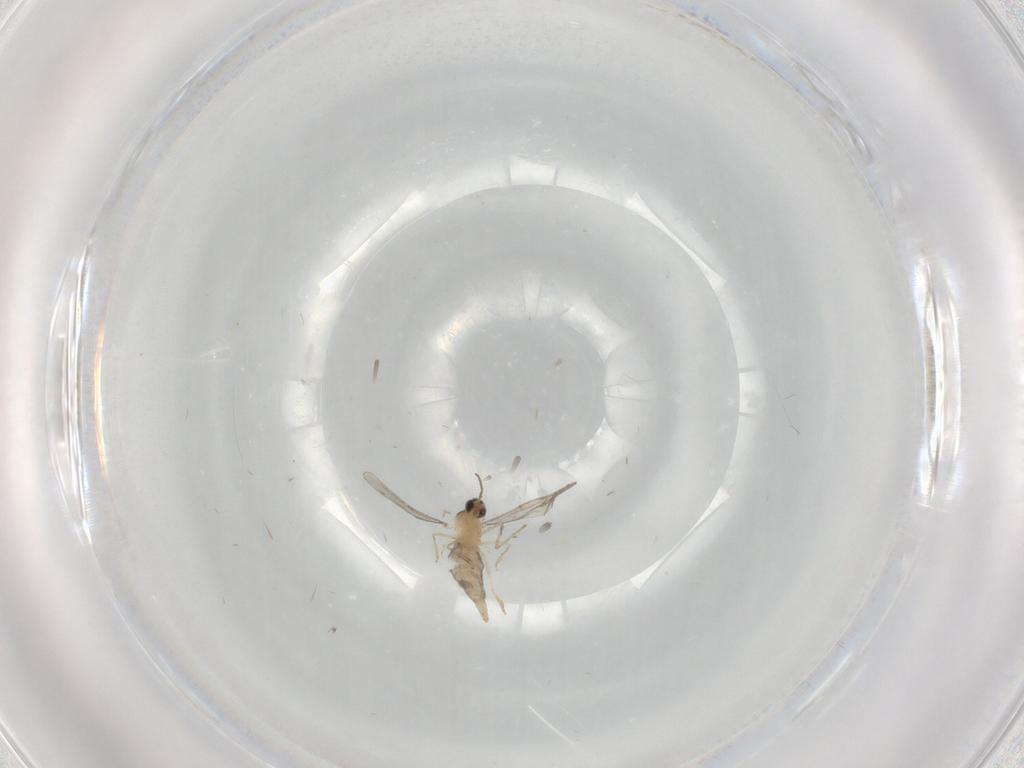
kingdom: Animalia
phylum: Arthropoda
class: Insecta
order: Diptera
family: Cecidomyiidae
